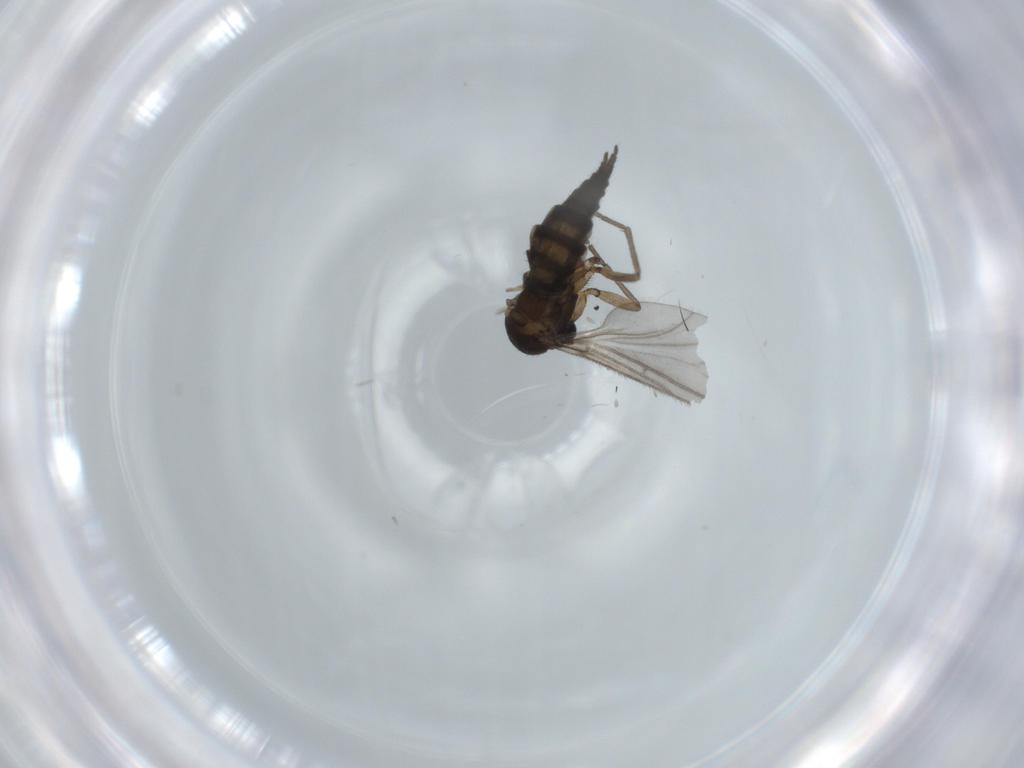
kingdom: Animalia
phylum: Arthropoda
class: Insecta
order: Diptera
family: Sciaridae
